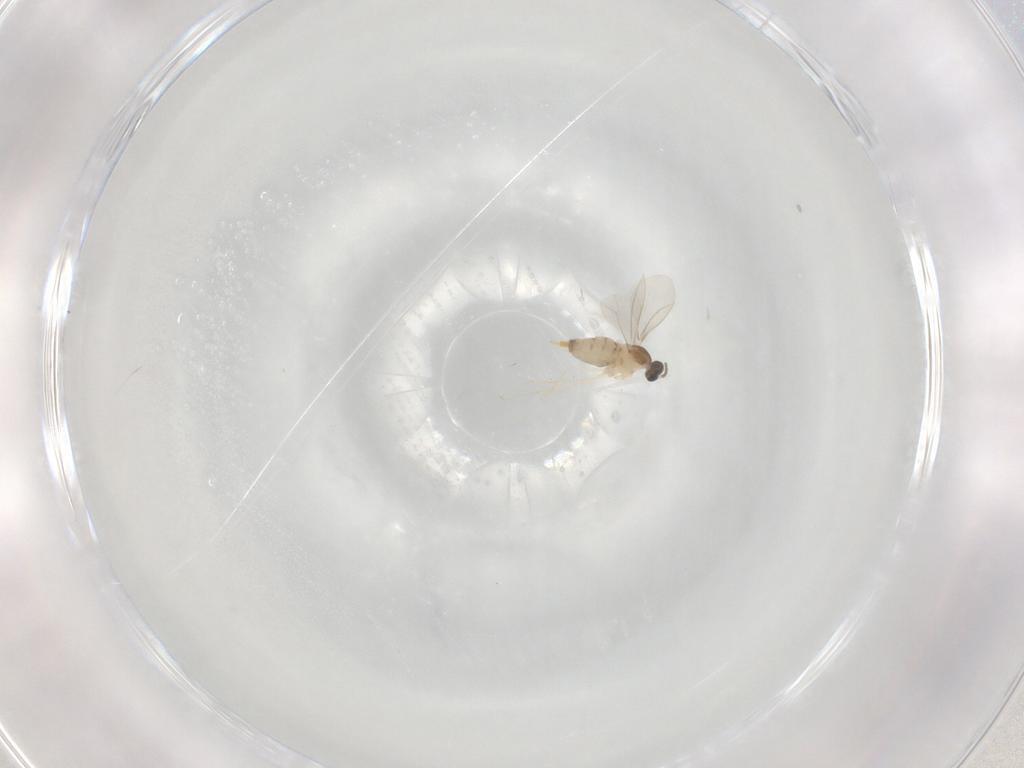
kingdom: Animalia
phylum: Arthropoda
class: Insecta
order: Diptera
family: Cecidomyiidae
